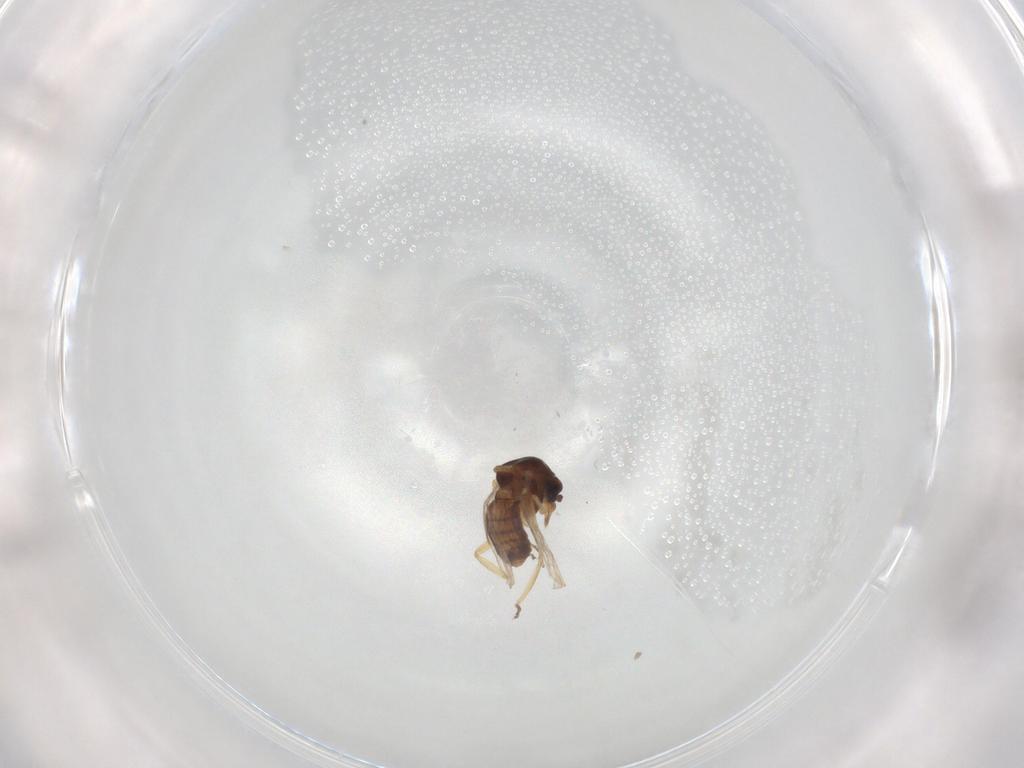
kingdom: Animalia
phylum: Arthropoda
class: Insecta
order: Diptera
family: Ceratopogonidae
